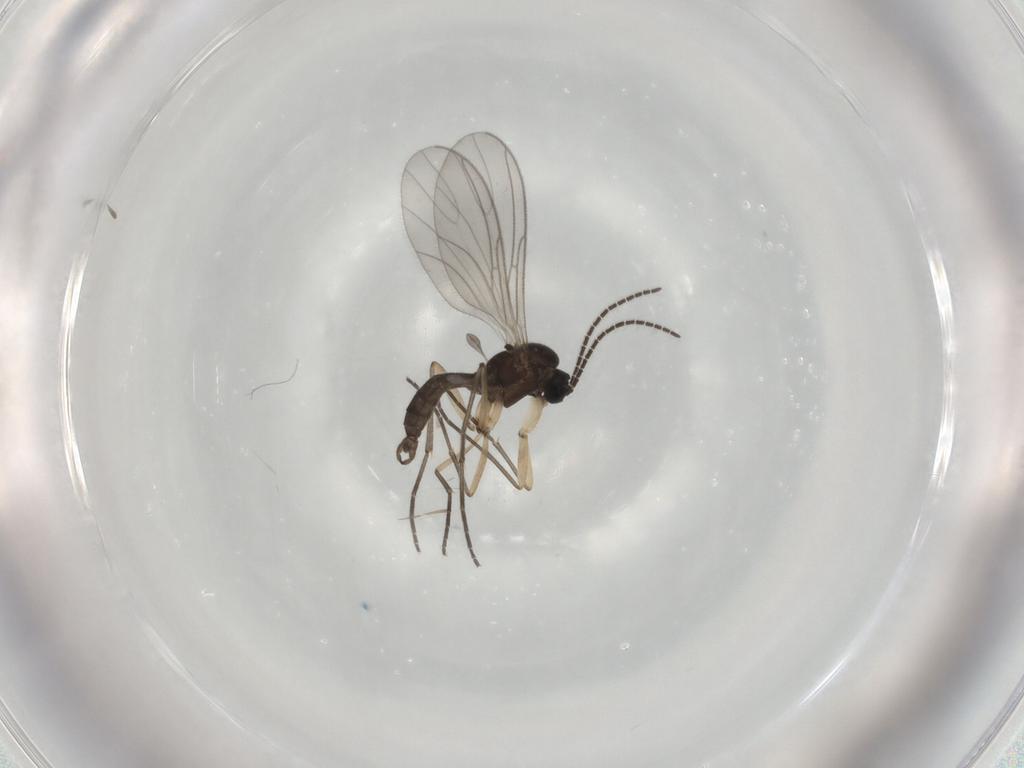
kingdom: Animalia
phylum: Arthropoda
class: Insecta
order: Diptera
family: Sciaridae
